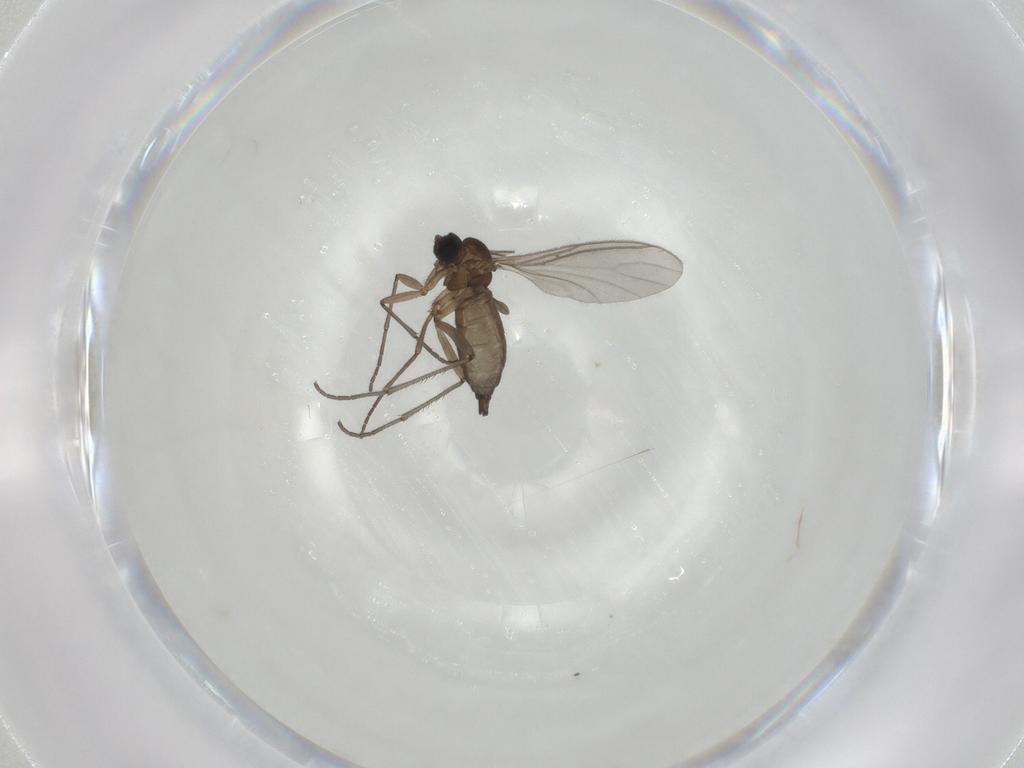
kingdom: Animalia
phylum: Arthropoda
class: Insecta
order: Diptera
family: Sciaridae
